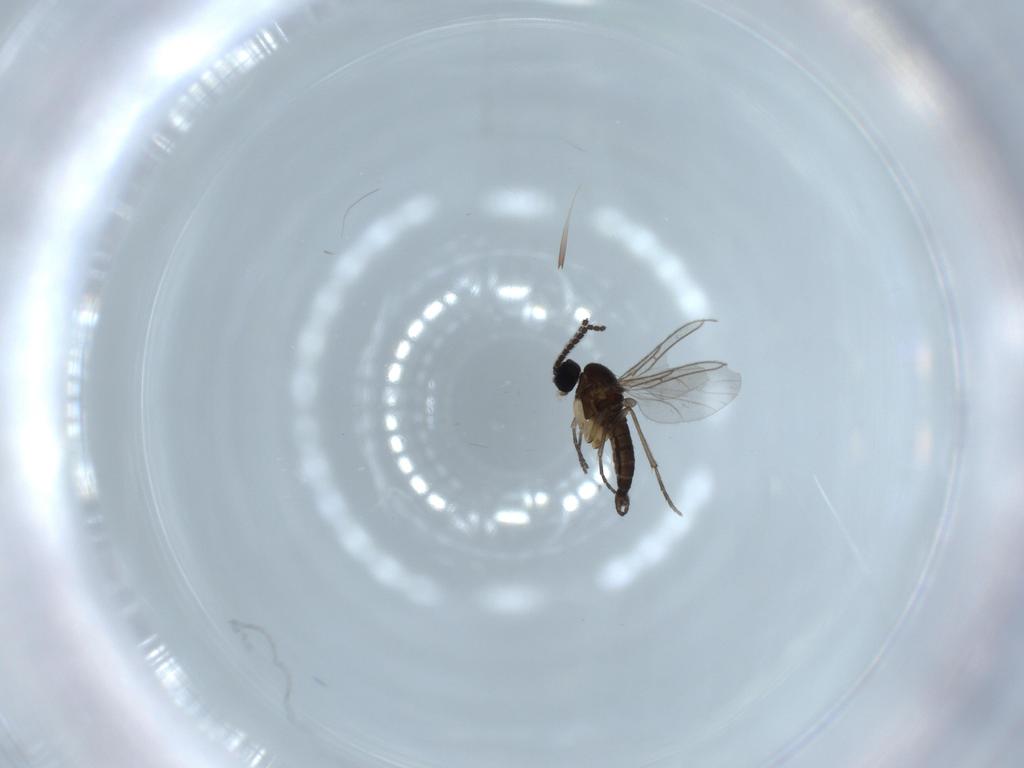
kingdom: Animalia
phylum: Arthropoda
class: Insecta
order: Diptera
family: Sciaridae
